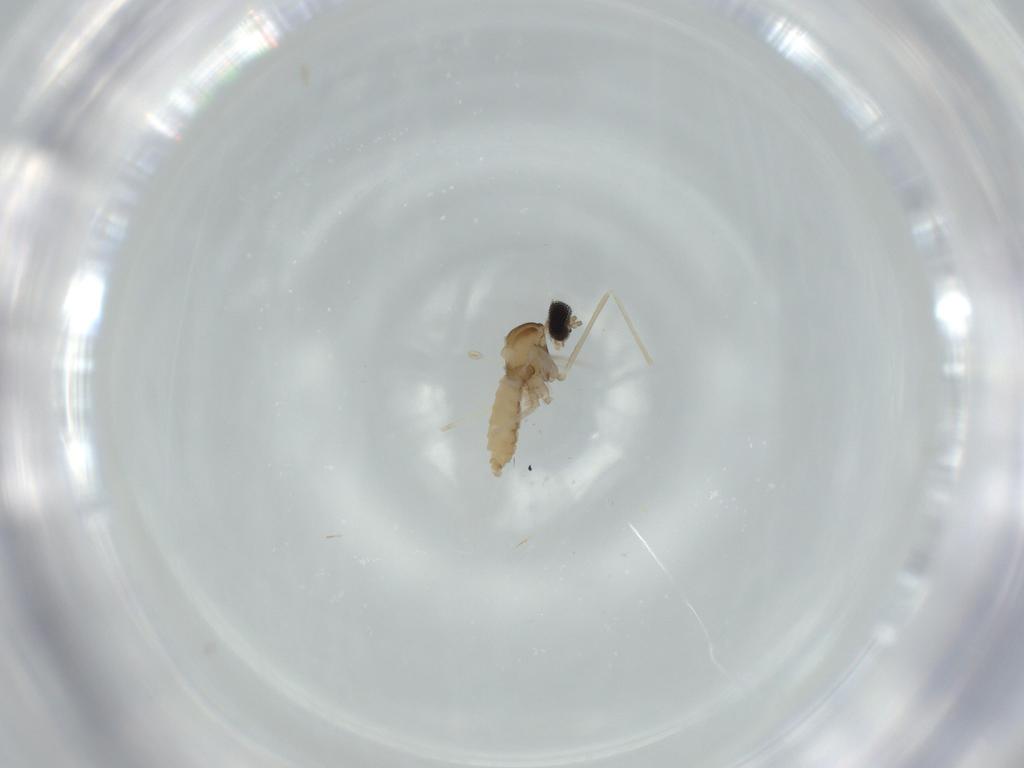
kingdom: Animalia
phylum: Arthropoda
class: Insecta
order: Diptera
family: Cecidomyiidae
